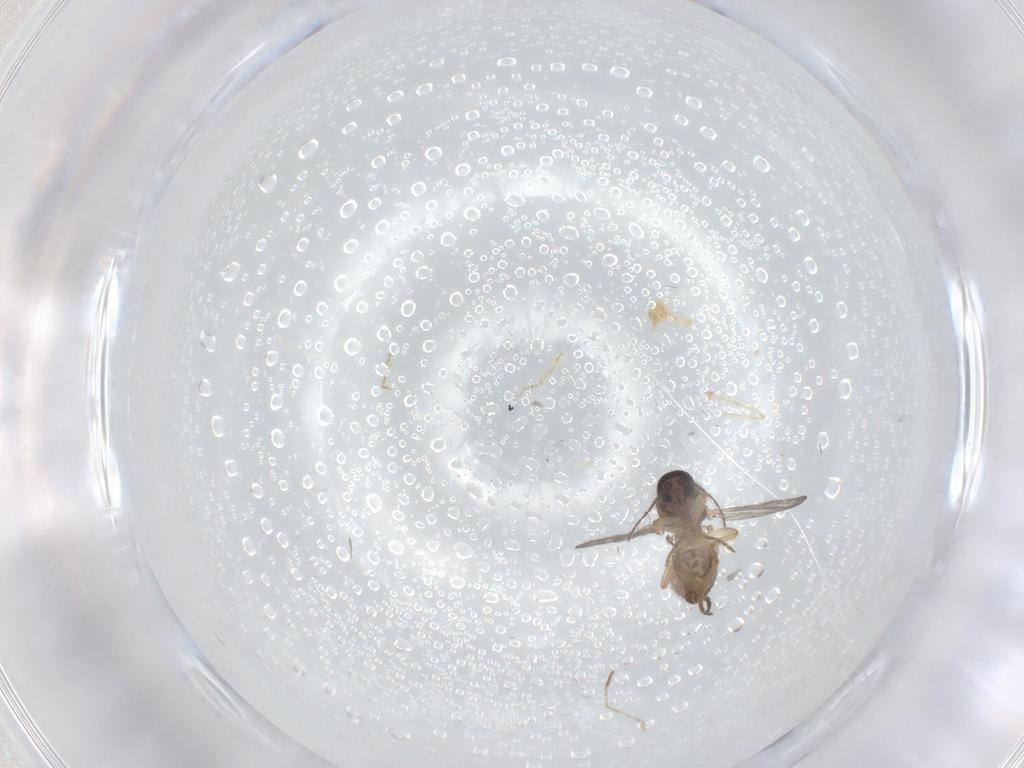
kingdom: Animalia
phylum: Arthropoda
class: Insecta
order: Diptera
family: Ceratopogonidae
